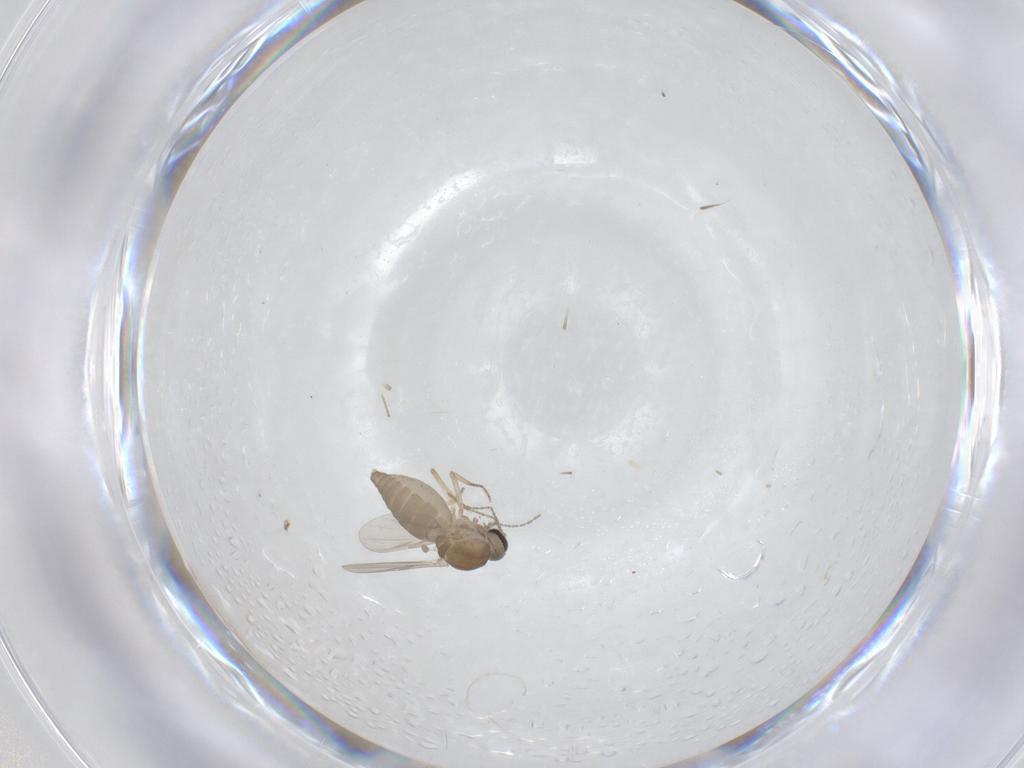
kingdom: Animalia
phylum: Arthropoda
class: Insecta
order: Diptera
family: Ceratopogonidae
